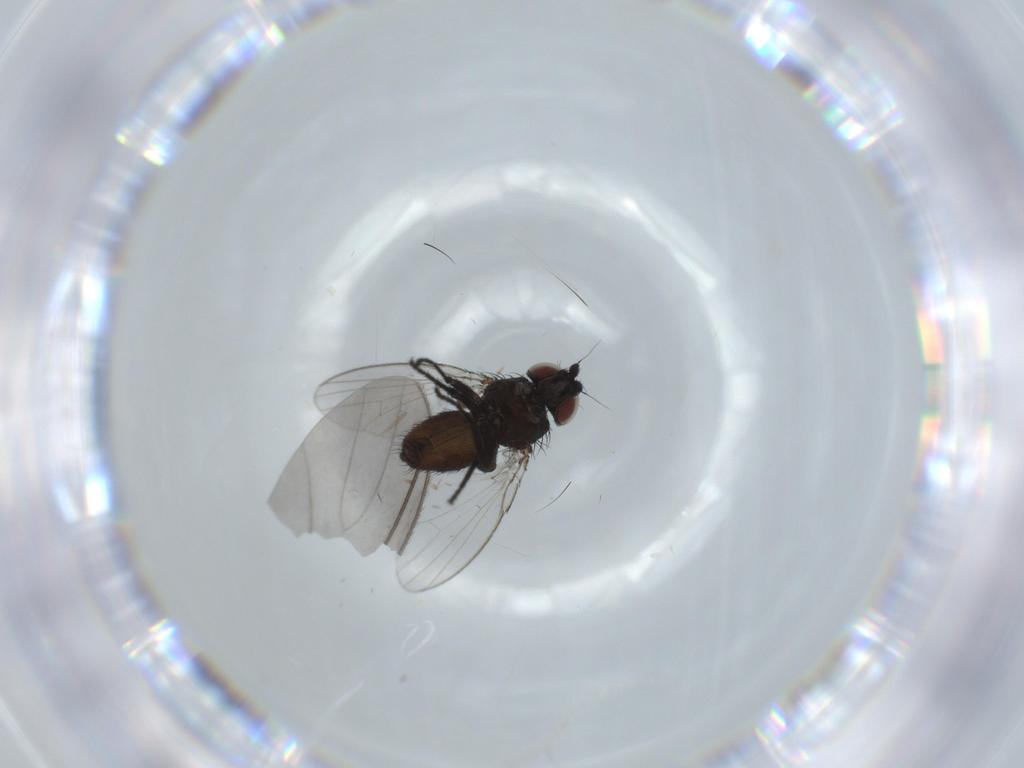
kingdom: Animalia
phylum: Arthropoda
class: Insecta
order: Diptera
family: Milichiidae
